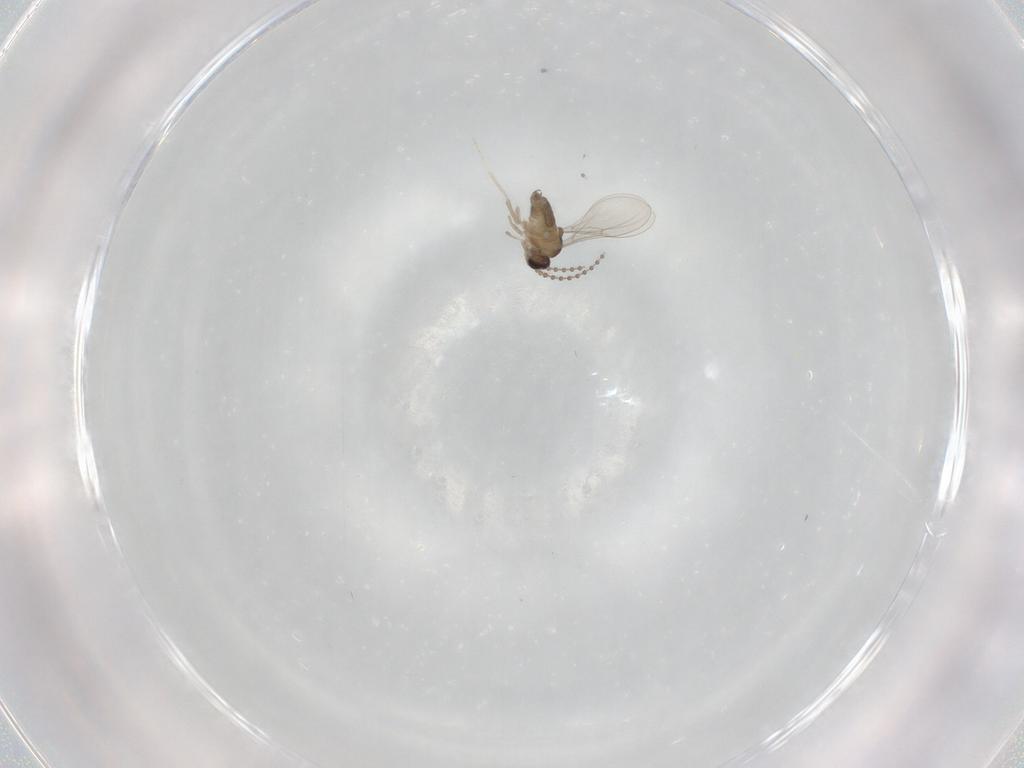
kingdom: Animalia
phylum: Arthropoda
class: Insecta
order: Diptera
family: Cecidomyiidae
